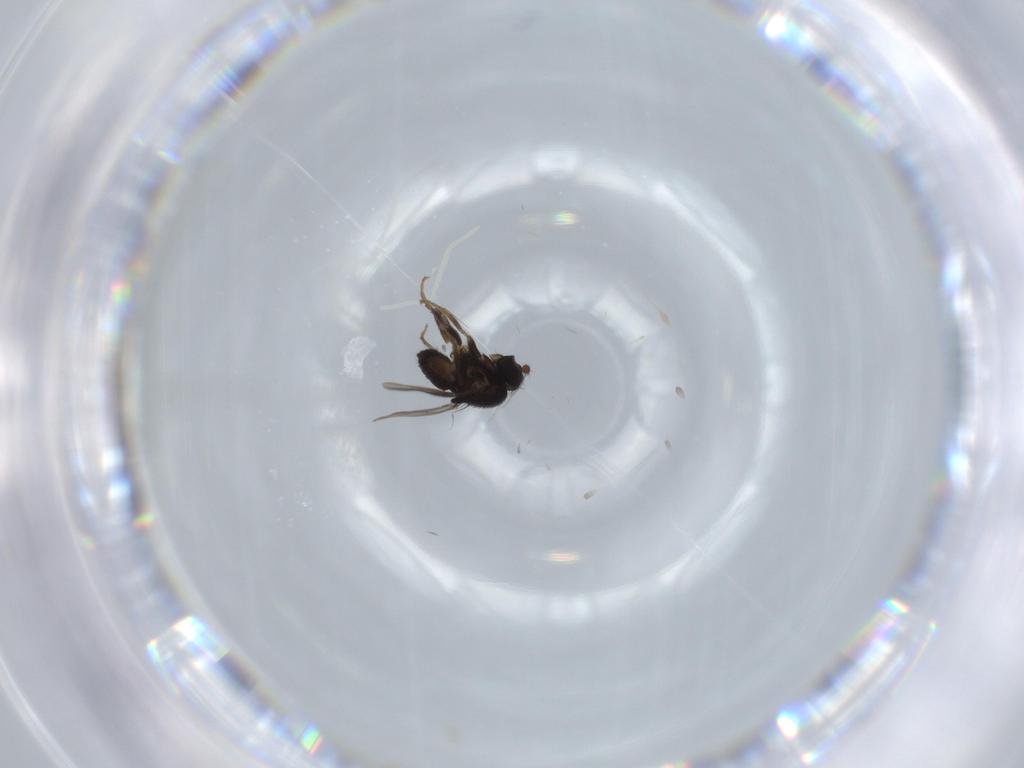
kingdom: Animalia
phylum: Arthropoda
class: Insecta
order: Diptera
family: Sphaeroceridae
